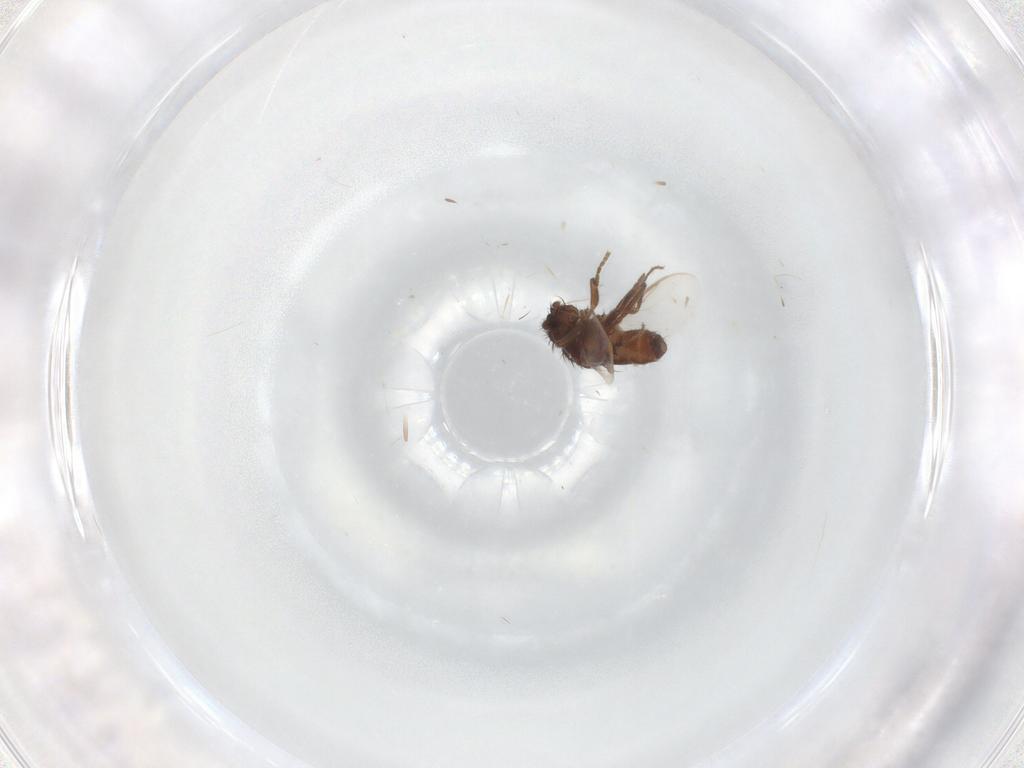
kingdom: Animalia
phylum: Arthropoda
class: Insecta
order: Diptera
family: Sphaeroceridae
